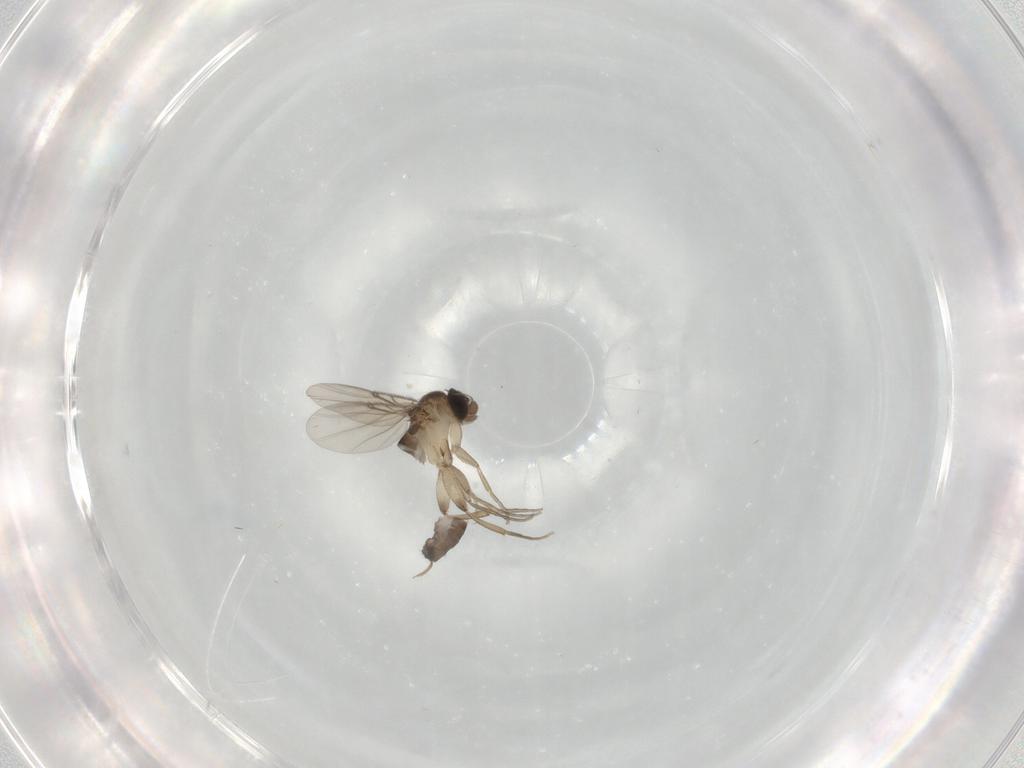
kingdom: Animalia
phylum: Arthropoda
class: Insecta
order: Diptera
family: Phoridae
